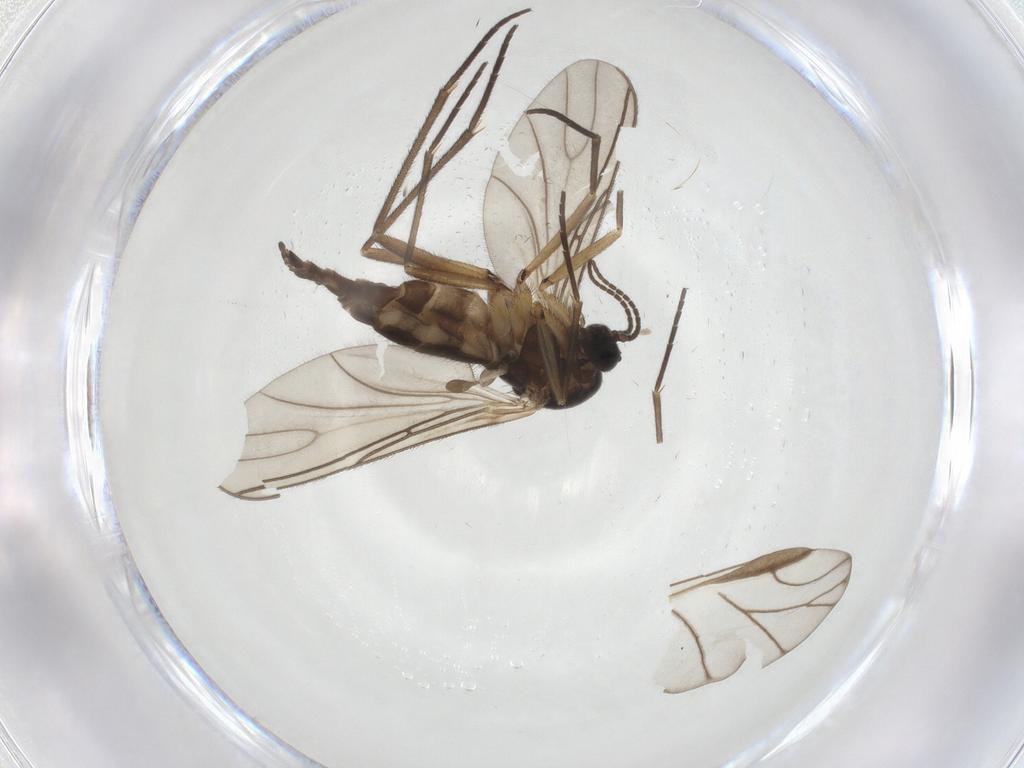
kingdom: Animalia
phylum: Arthropoda
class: Insecta
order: Diptera
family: Sciaridae
